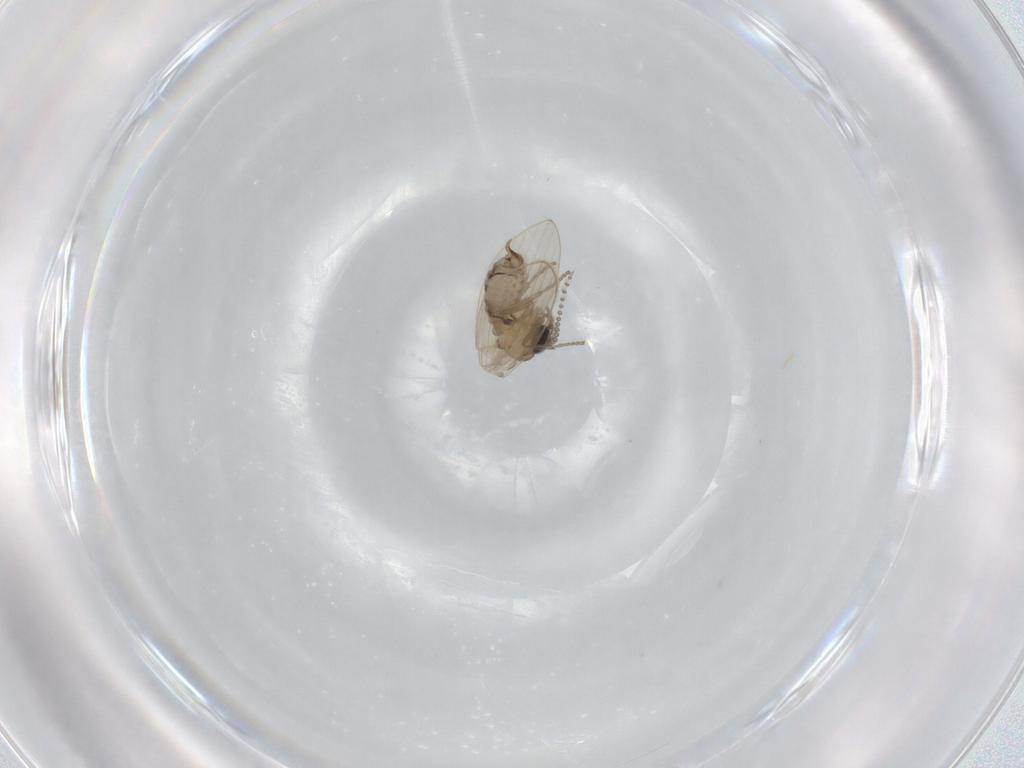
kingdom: Animalia
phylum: Arthropoda
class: Insecta
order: Diptera
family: Psychodidae
